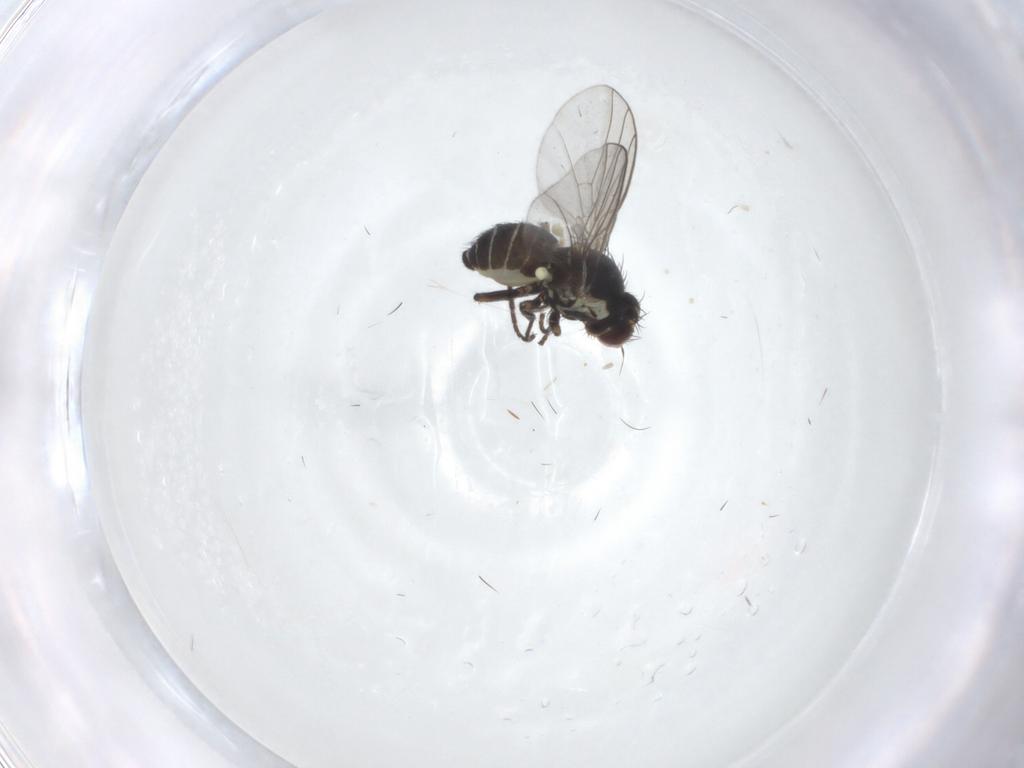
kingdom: Animalia
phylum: Arthropoda
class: Insecta
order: Diptera
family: Agromyzidae
